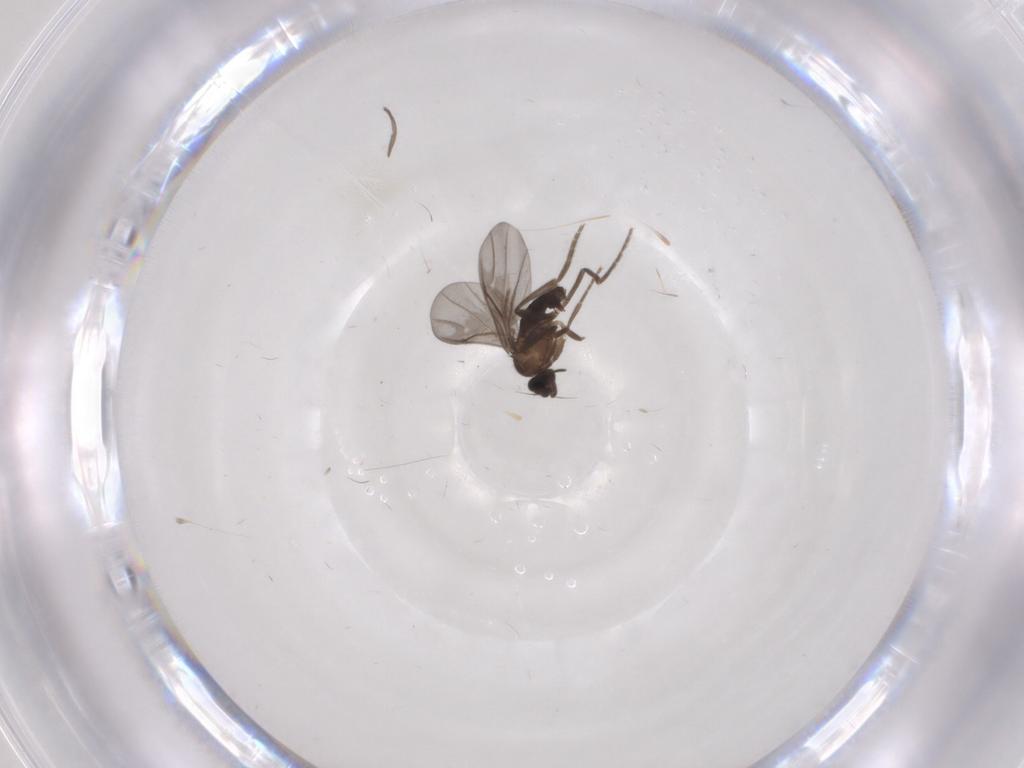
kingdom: Animalia
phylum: Arthropoda
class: Insecta
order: Diptera
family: Phoridae
